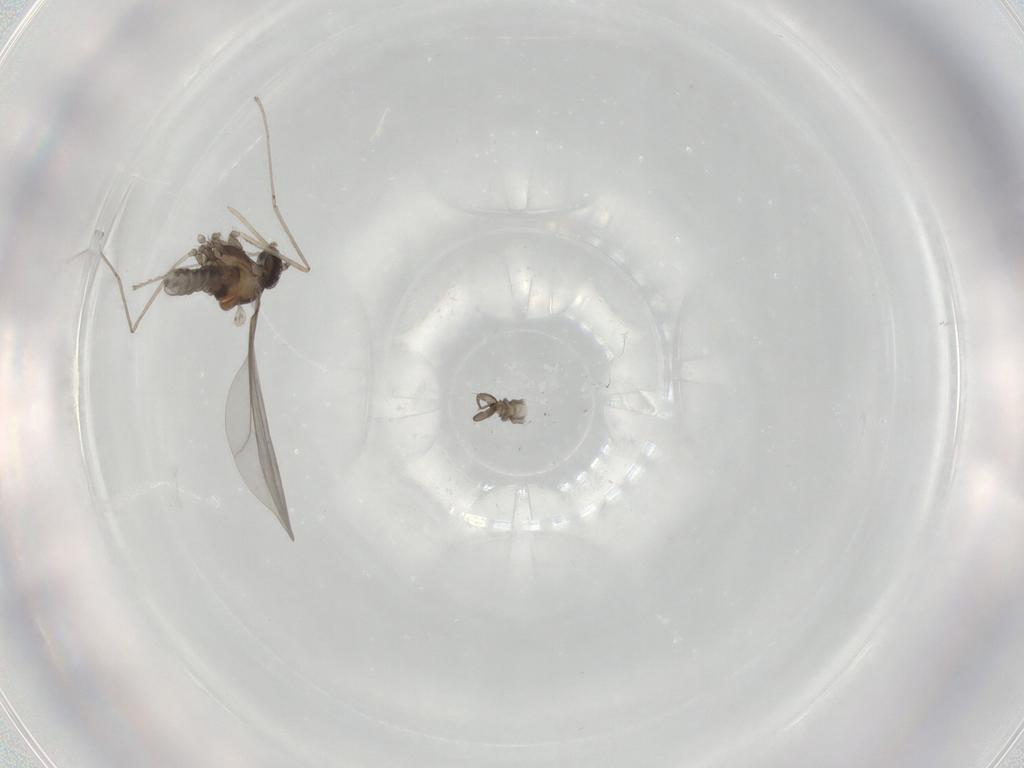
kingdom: Animalia
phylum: Arthropoda
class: Insecta
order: Diptera
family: Cecidomyiidae
